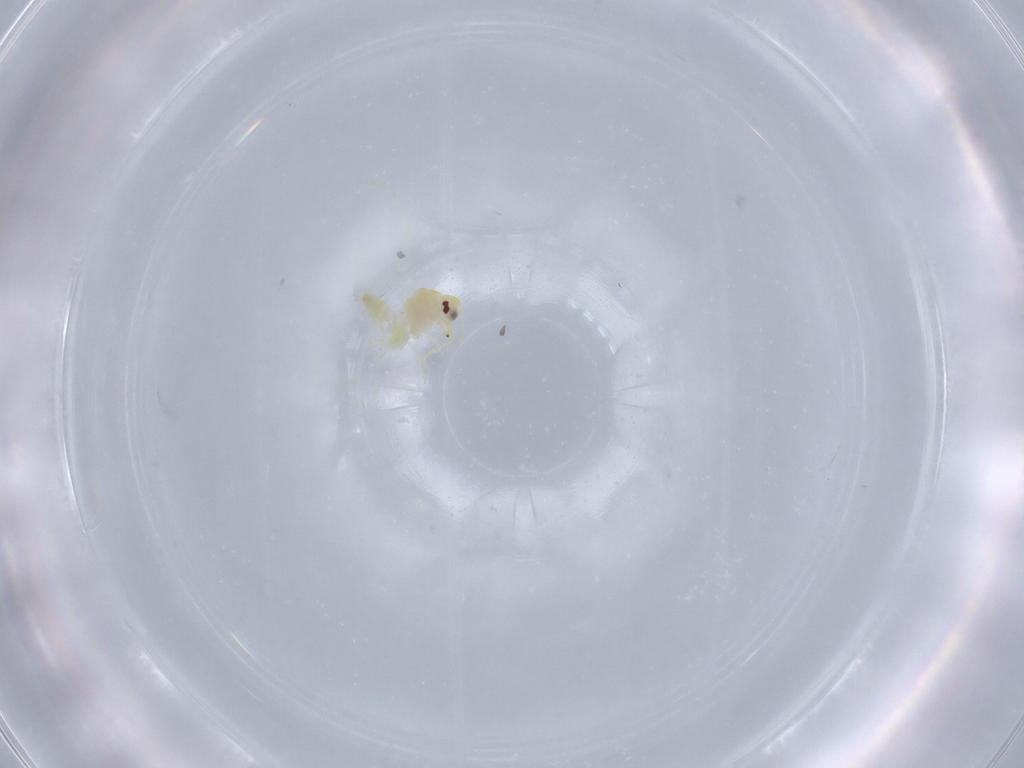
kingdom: Animalia
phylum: Arthropoda
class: Insecta
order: Hemiptera
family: Aleyrodidae
